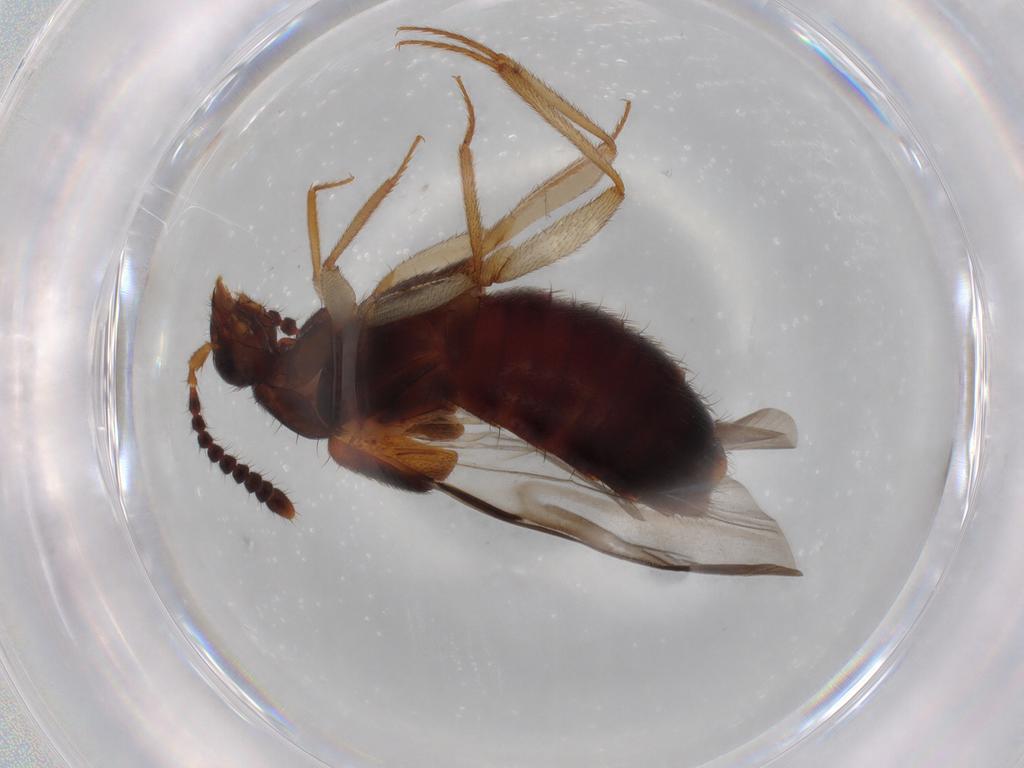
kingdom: Animalia
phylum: Arthropoda
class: Insecta
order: Coleoptera
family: Staphylinidae
